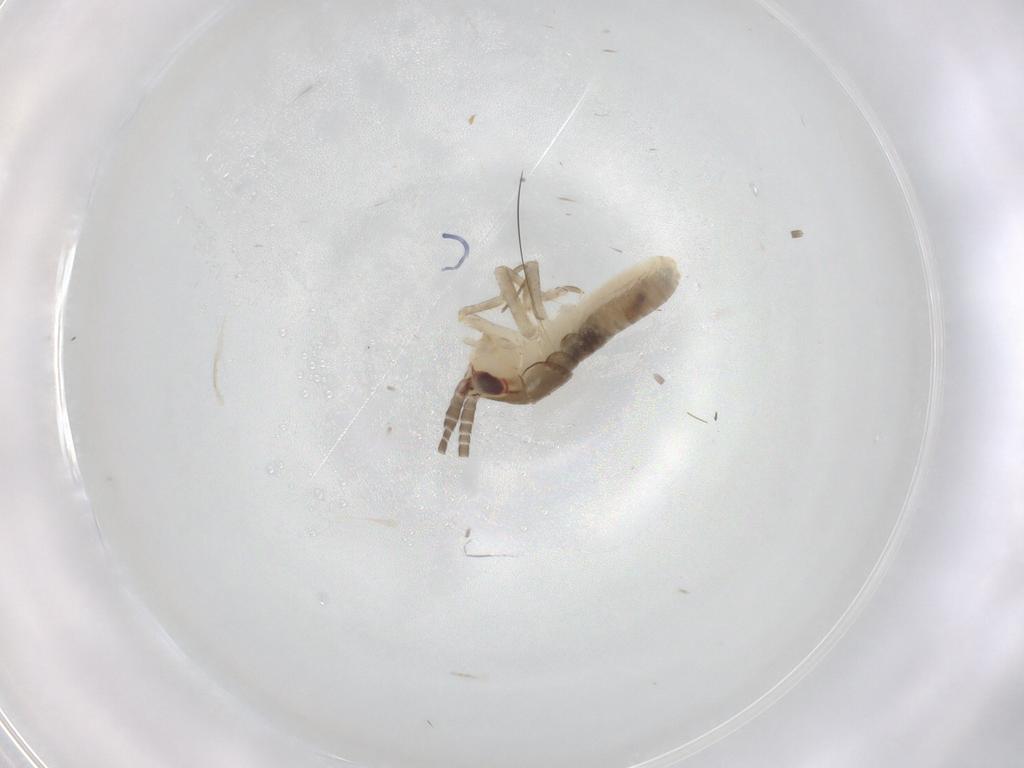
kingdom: Animalia
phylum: Arthropoda
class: Insecta
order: Orthoptera
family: Gryllidae
